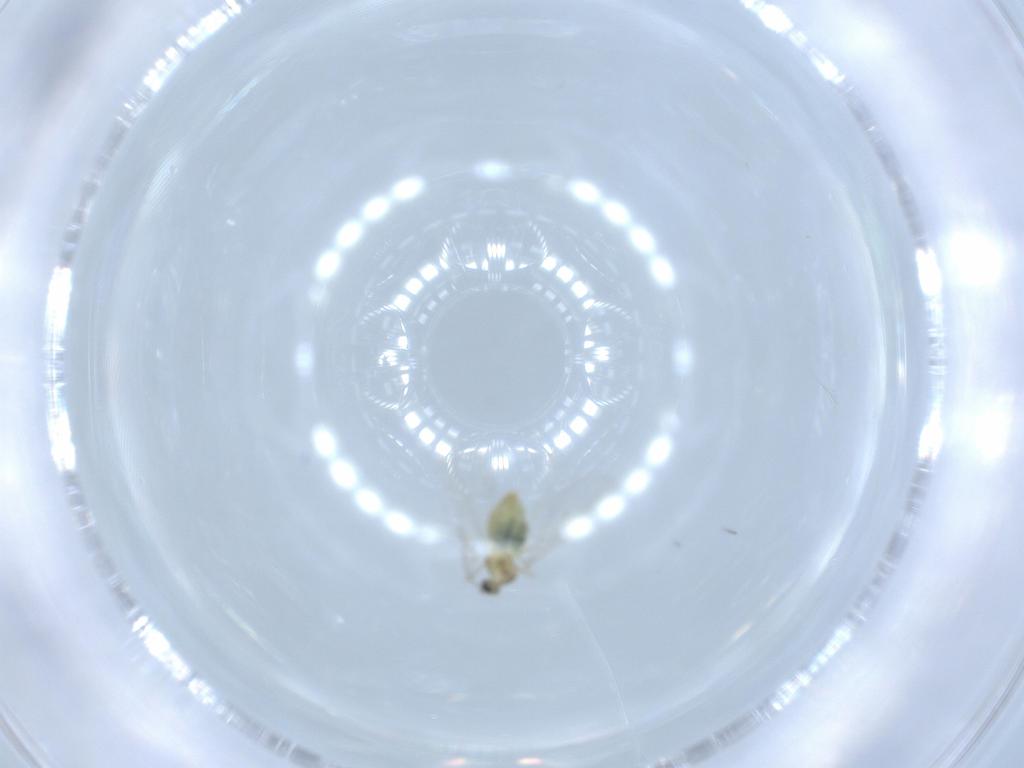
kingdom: Animalia
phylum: Arthropoda
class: Insecta
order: Diptera
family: Cecidomyiidae
